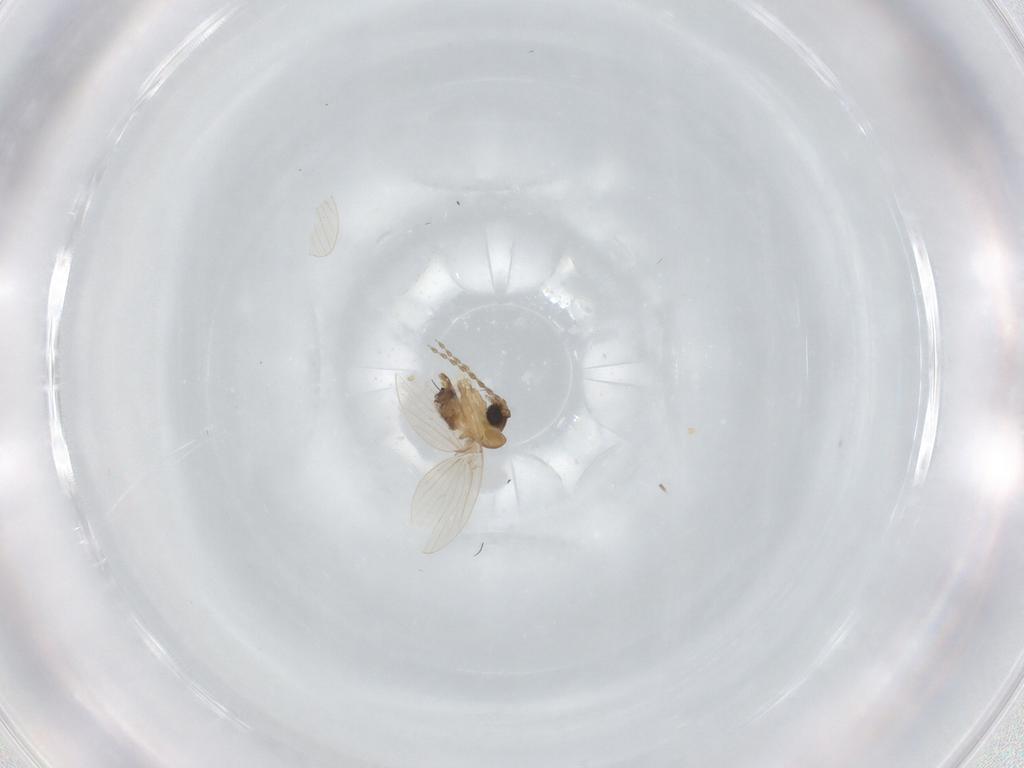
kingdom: Animalia
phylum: Arthropoda
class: Insecta
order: Diptera
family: Psychodidae
